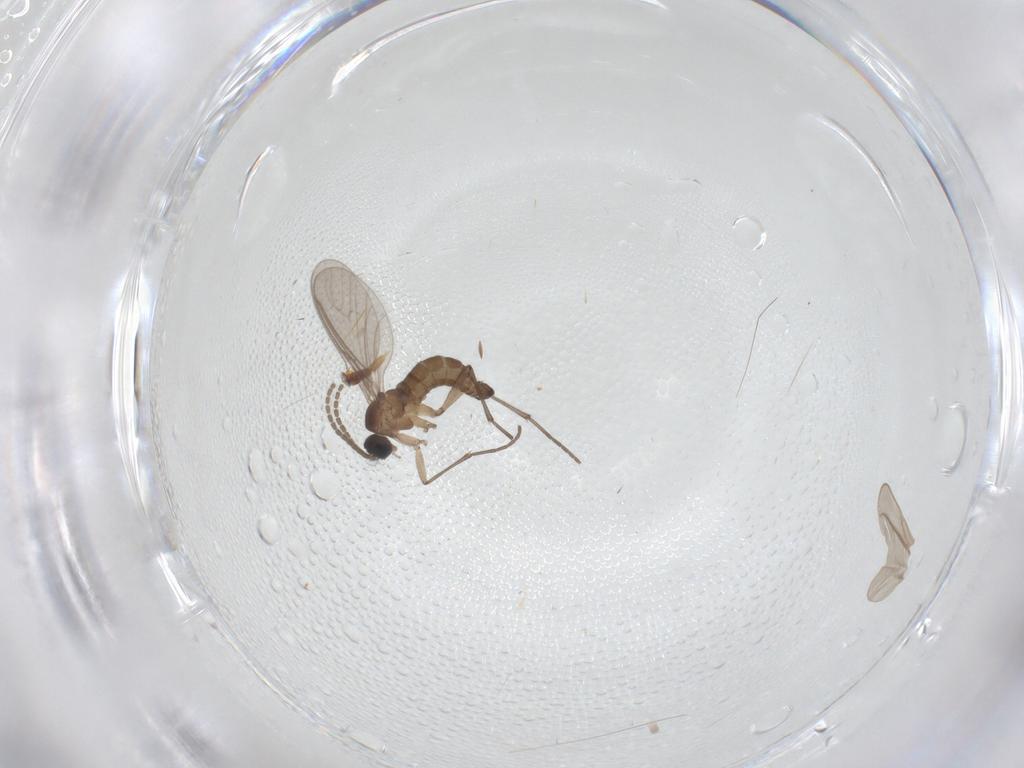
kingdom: Animalia
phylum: Arthropoda
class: Insecta
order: Diptera
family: Sciaridae
